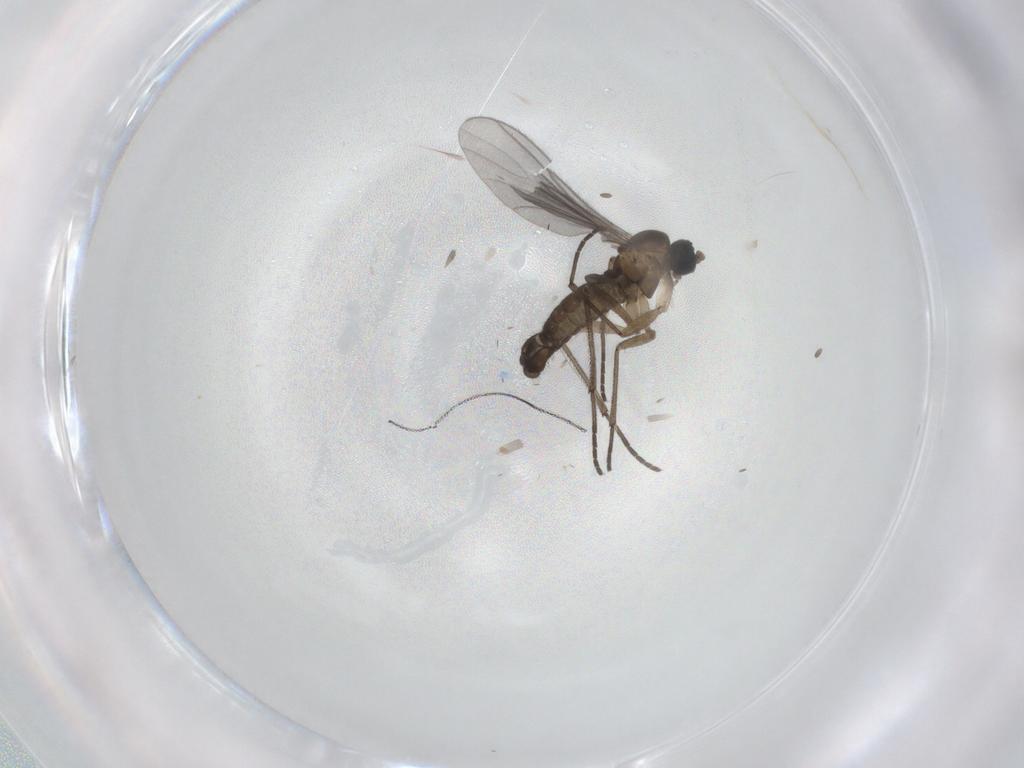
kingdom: Animalia
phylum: Arthropoda
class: Insecta
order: Diptera
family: Sciaridae
